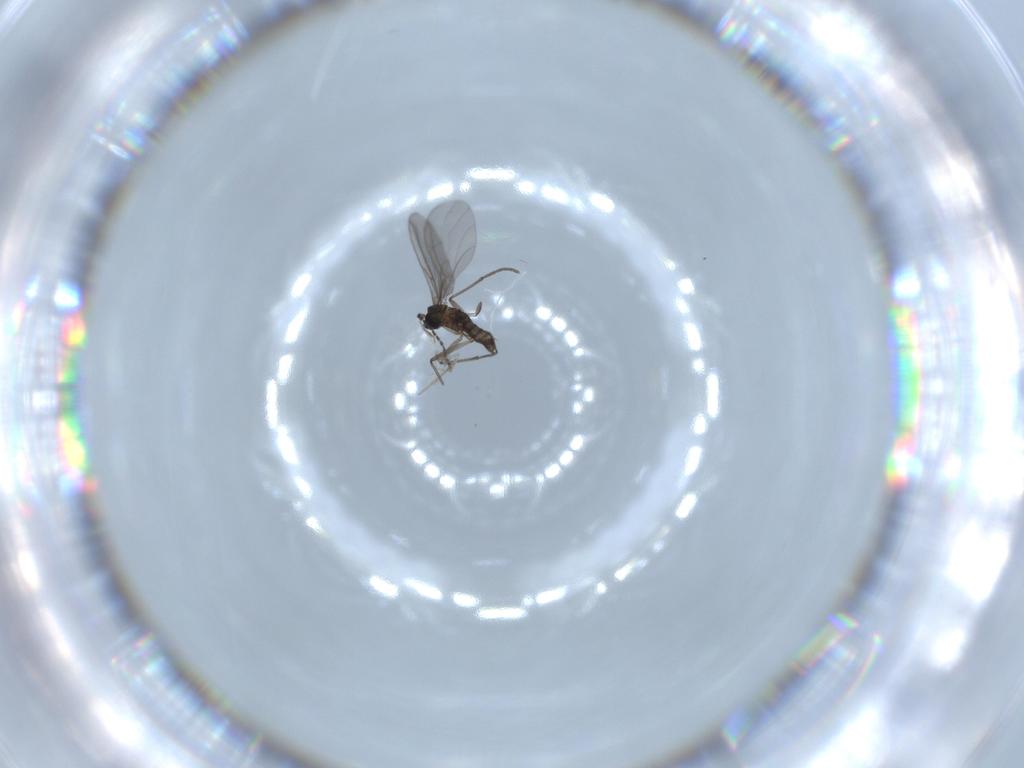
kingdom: Animalia
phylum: Arthropoda
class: Insecta
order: Diptera
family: Sciaridae
